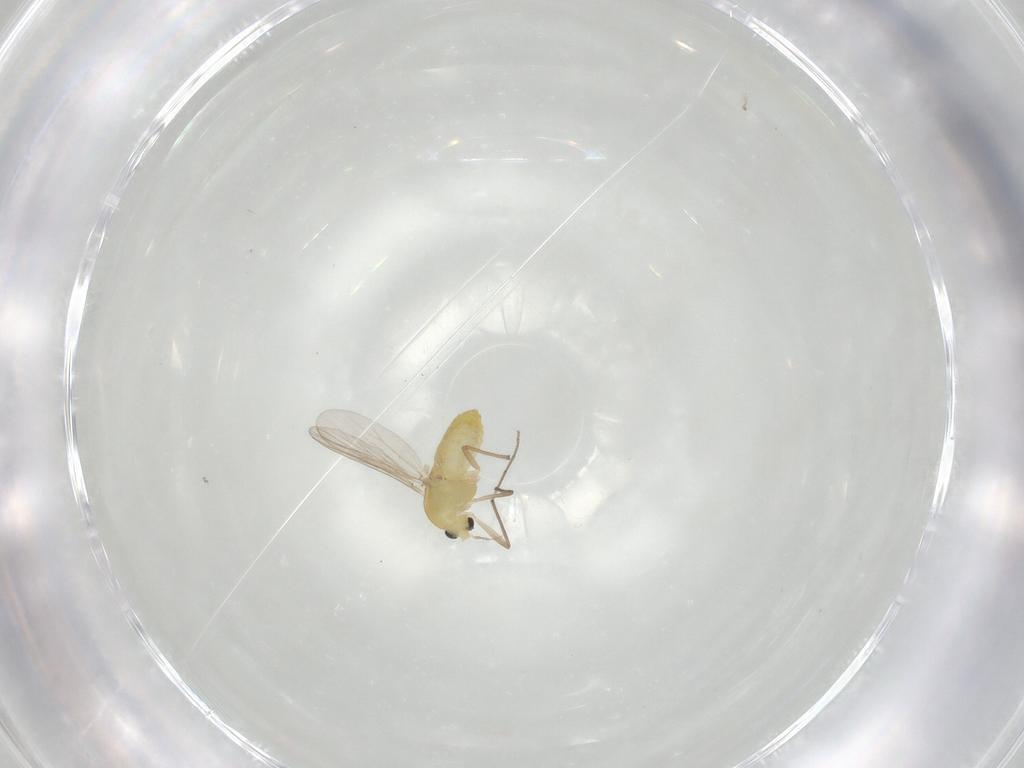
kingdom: Animalia
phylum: Arthropoda
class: Insecta
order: Diptera
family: Chironomidae
